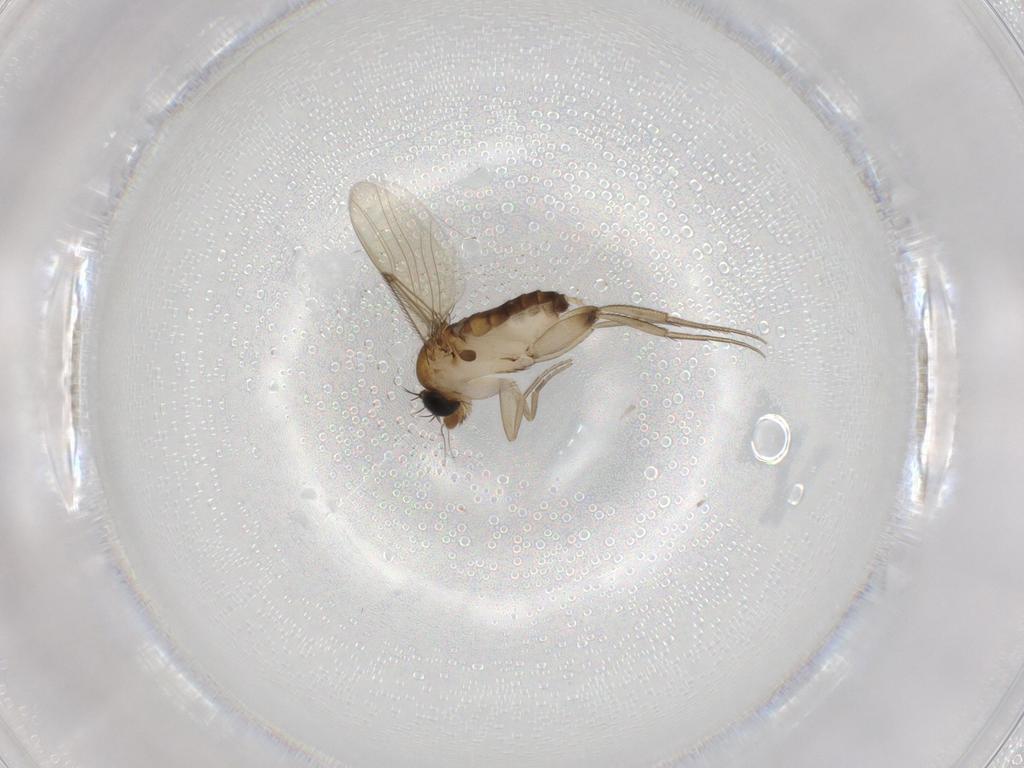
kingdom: Animalia
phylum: Arthropoda
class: Insecta
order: Diptera
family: Phoridae
